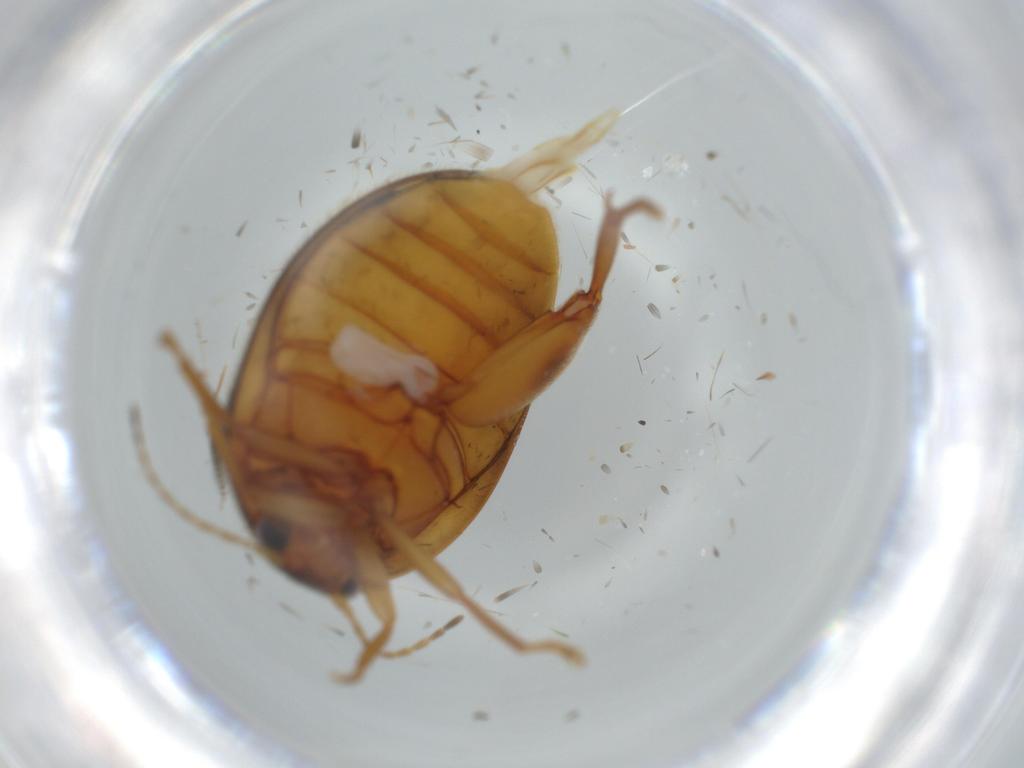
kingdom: Animalia
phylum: Arthropoda
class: Insecta
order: Coleoptera
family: Scirtidae
